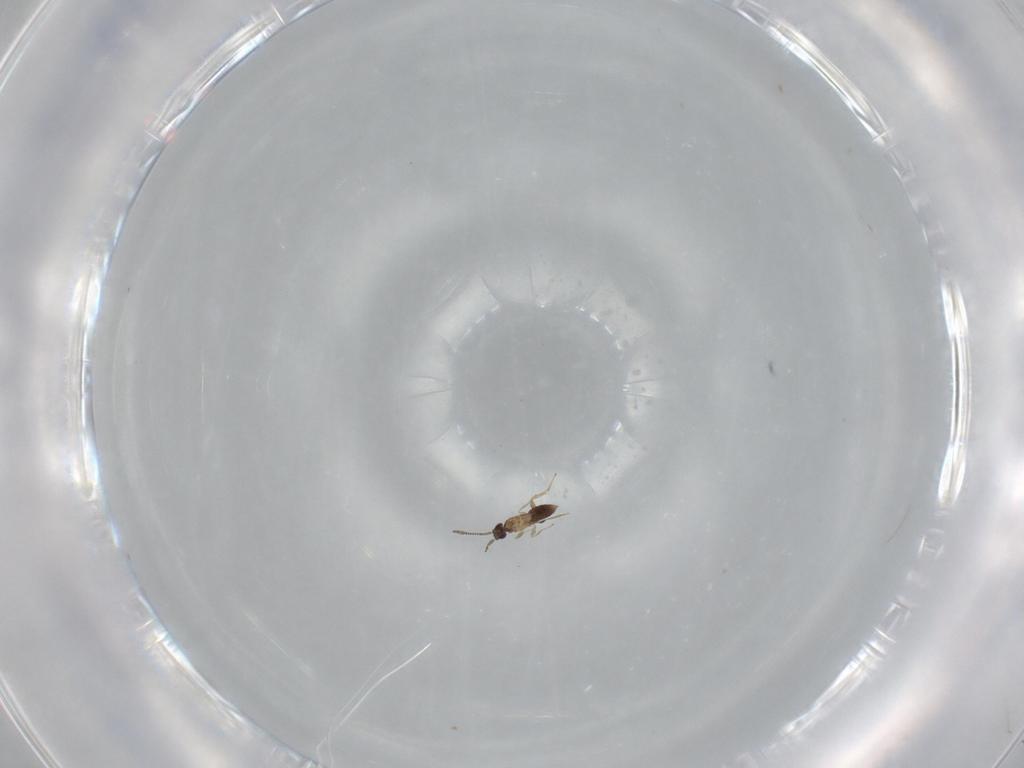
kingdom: Animalia
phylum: Arthropoda
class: Insecta
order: Hymenoptera
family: Mymaridae
